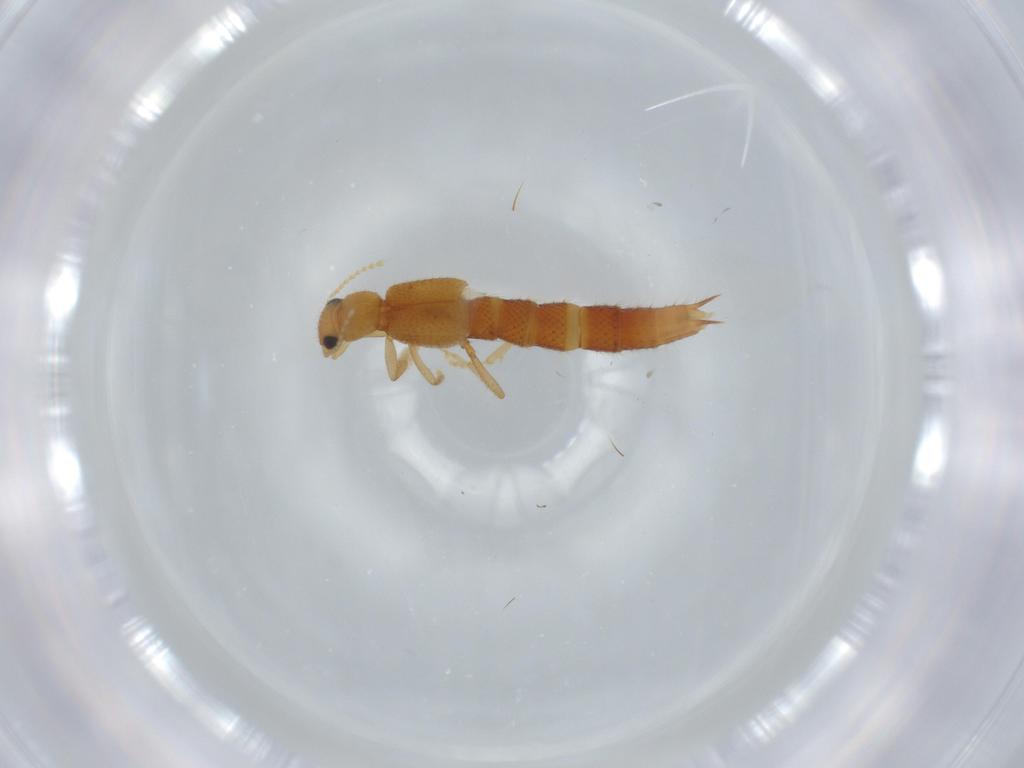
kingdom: Animalia
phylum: Arthropoda
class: Insecta
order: Coleoptera
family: Staphylinidae
